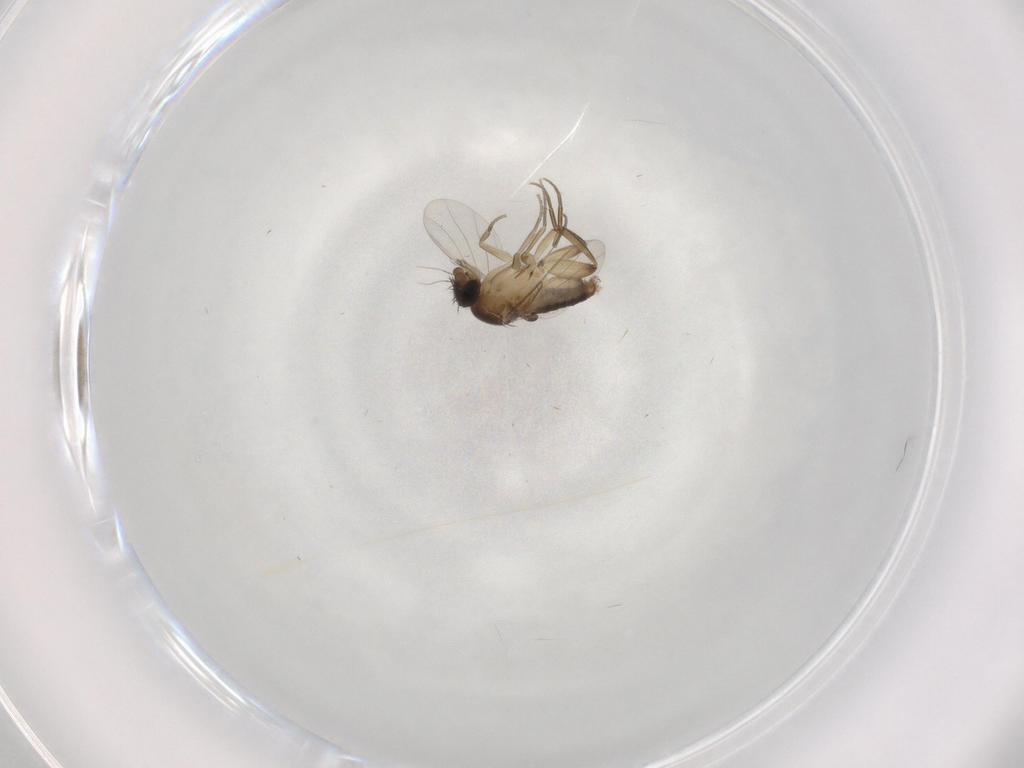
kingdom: Animalia
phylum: Arthropoda
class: Insecta
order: Diptera
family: Phoridae
